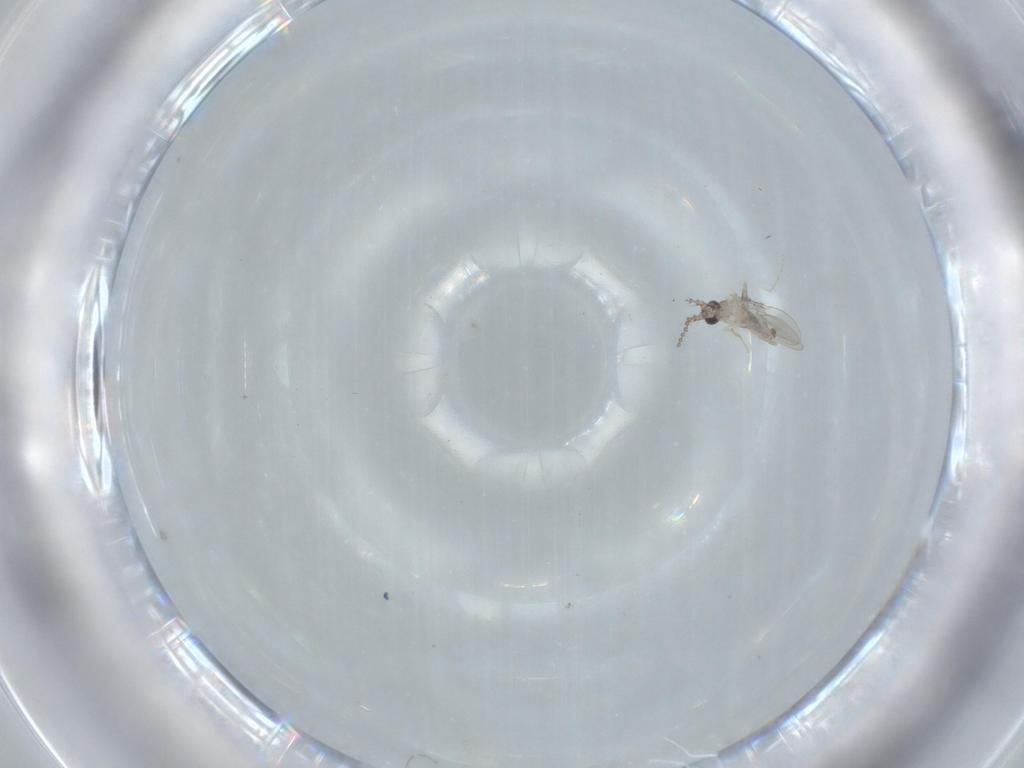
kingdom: Animalia
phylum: Arthropoda
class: Insecta
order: Diptera
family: Cecidomyiidae
